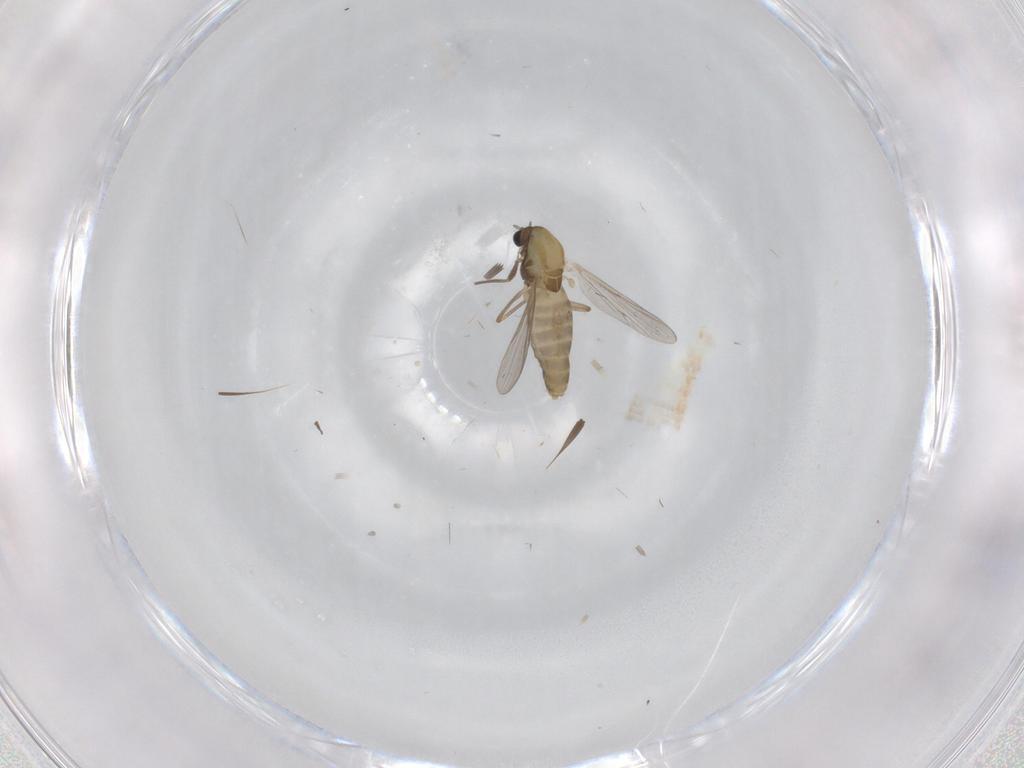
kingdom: Animalia
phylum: Arthropoda
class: Insecta
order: Diptera
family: Chironomidae
